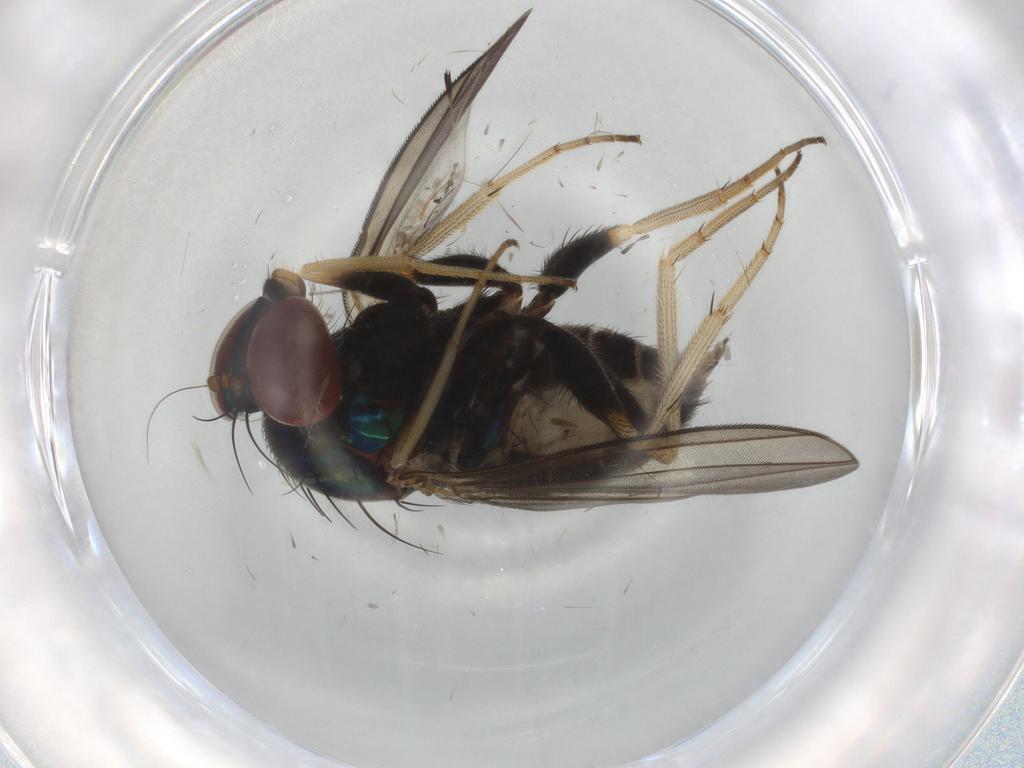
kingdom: Animalia
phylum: Arthropoda
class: Insecta
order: Diptera
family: Dolichopodidae
